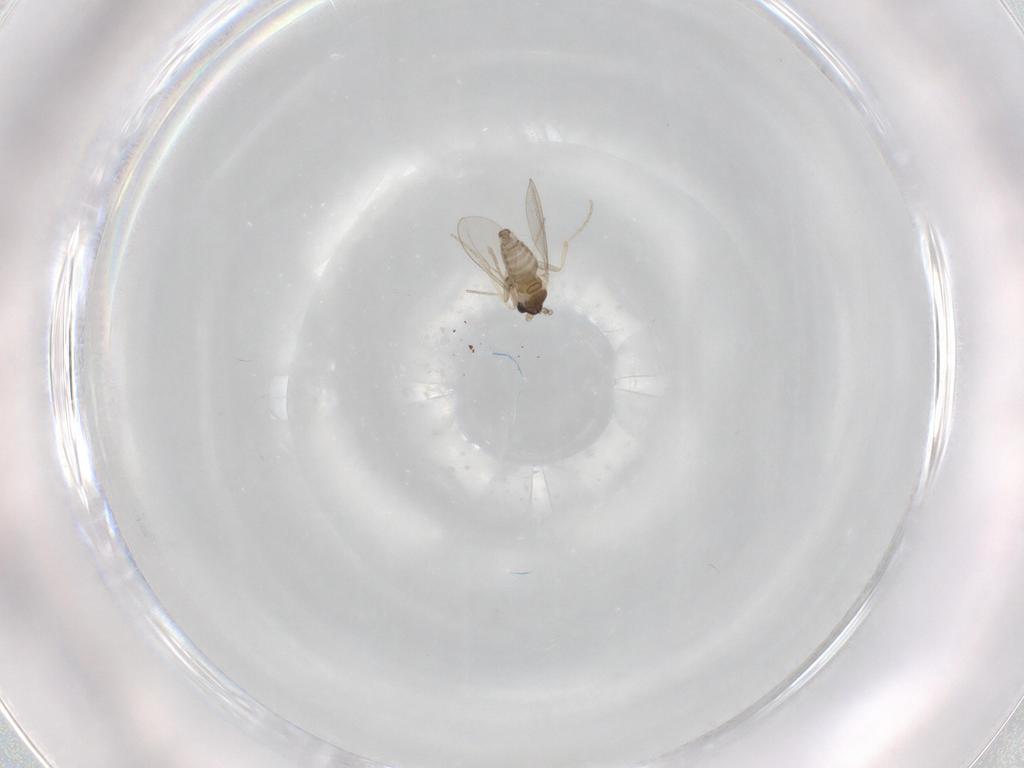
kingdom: Animalia
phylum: Arthropoda
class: Insecta
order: Diptera
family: Cecidomyiidae
